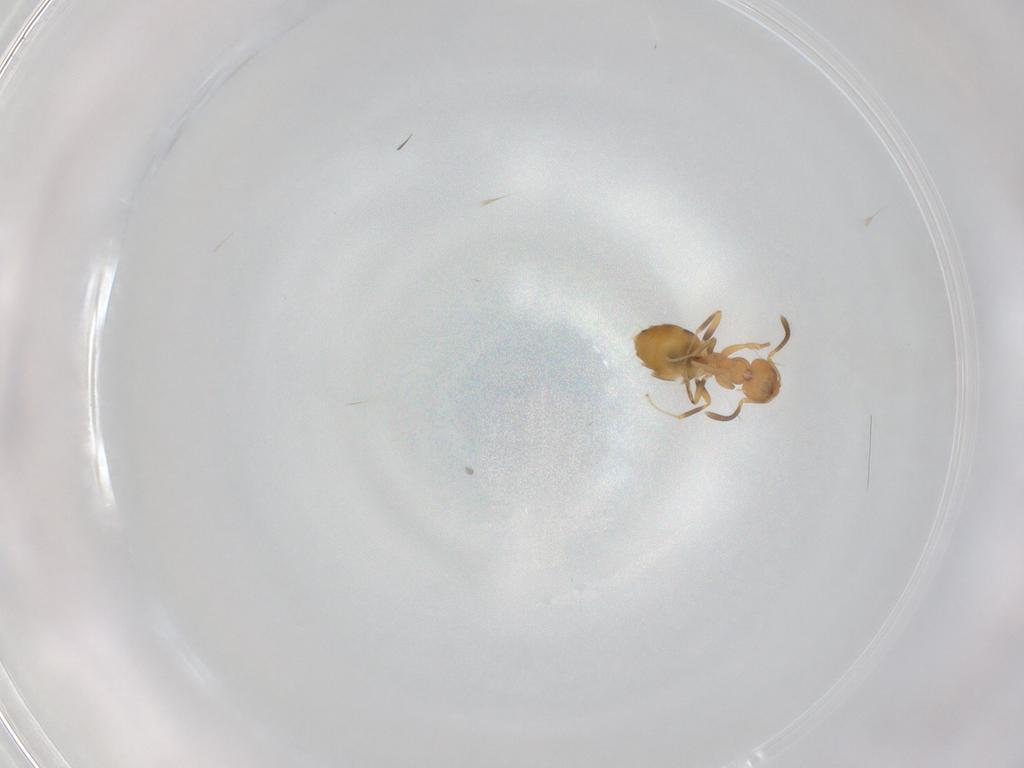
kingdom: Animalia
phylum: Arthropoda
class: Insecta
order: Hymenoptera
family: Formicidae
